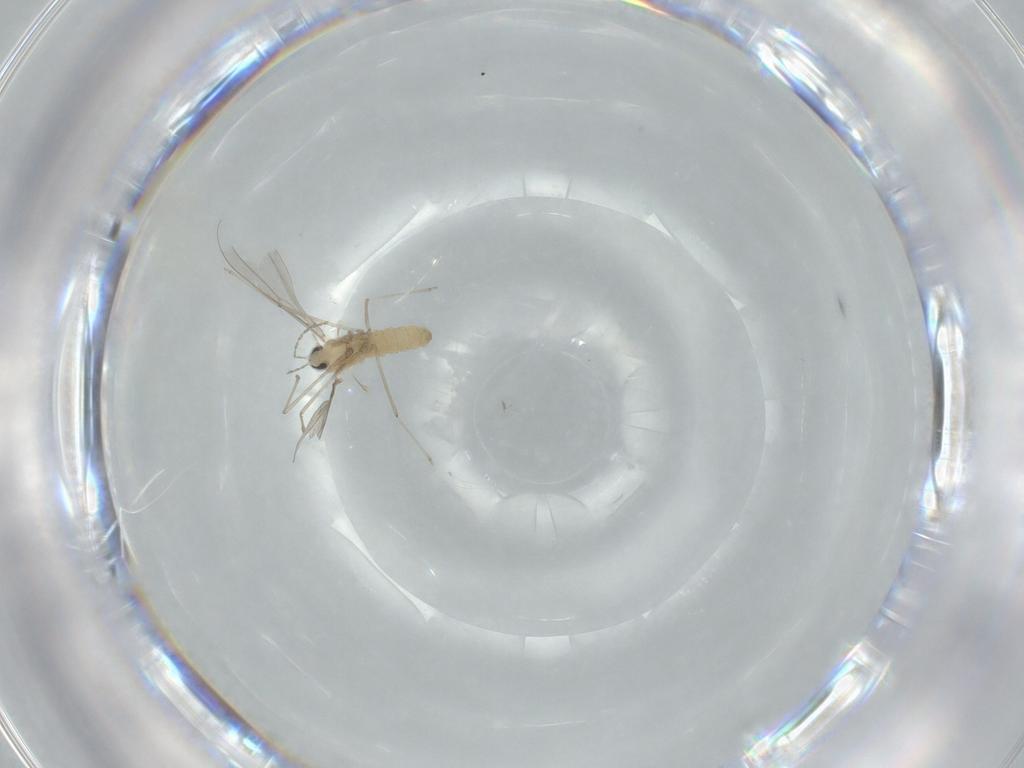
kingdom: Animalia
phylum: Arthropoda
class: Insecta
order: Diptera
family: Cecidomyiidae
